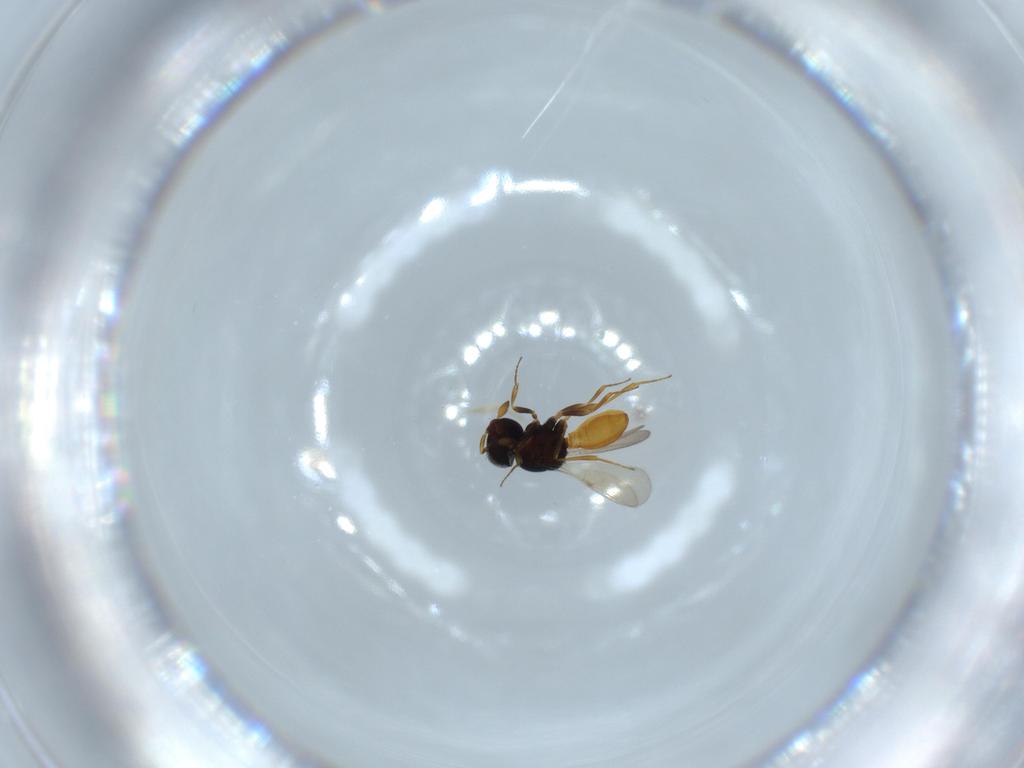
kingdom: Animalia
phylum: Arthropoda
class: Insecta
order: Hymenoptera
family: Scelionidae
